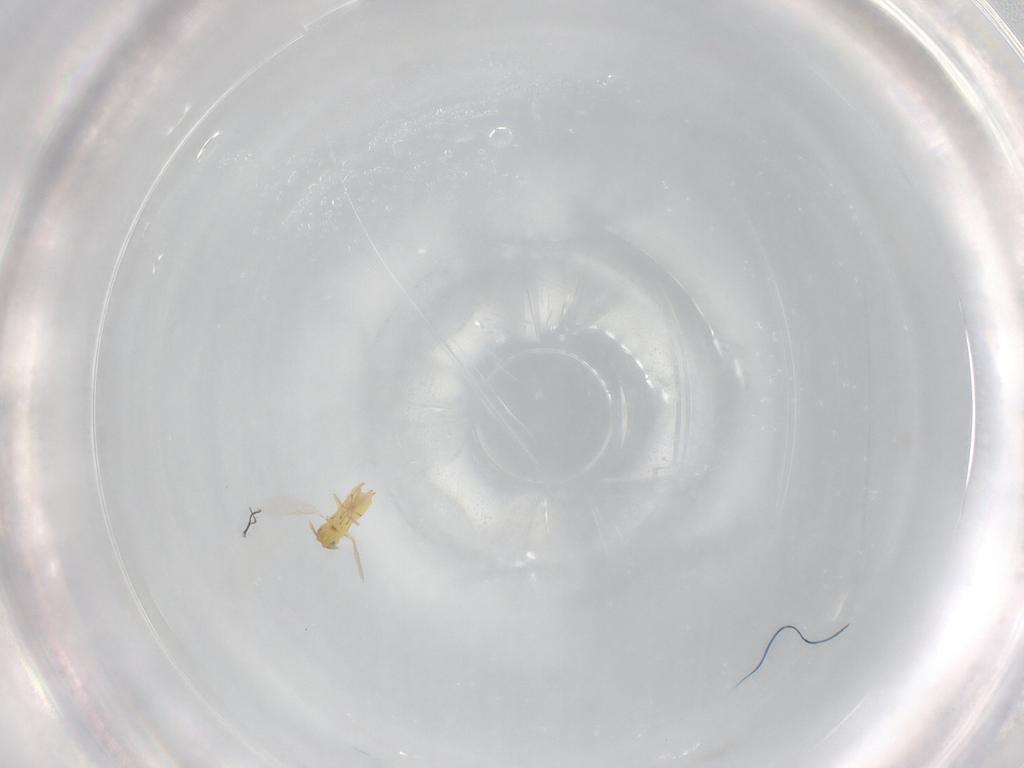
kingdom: Animalia
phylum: Arthropoda
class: Insecta
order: Hymenoptera
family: Aphelinidae
